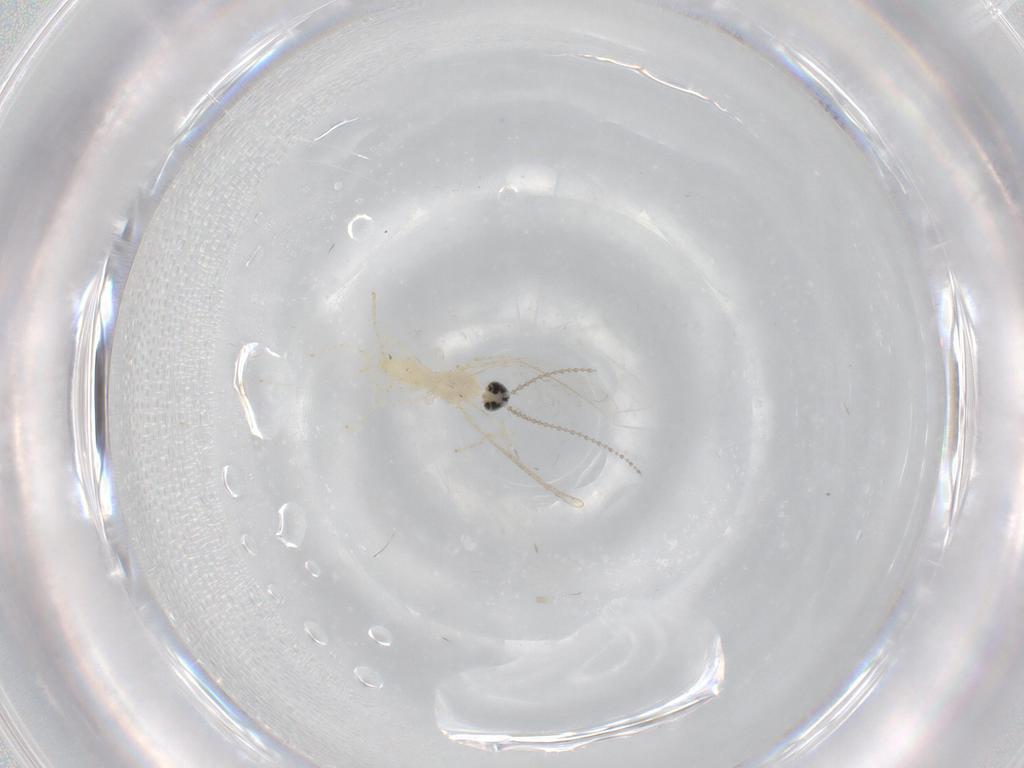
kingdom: Animalia
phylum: Arthropoda
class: Insecta
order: Diptera
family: Cecidomyiidae
